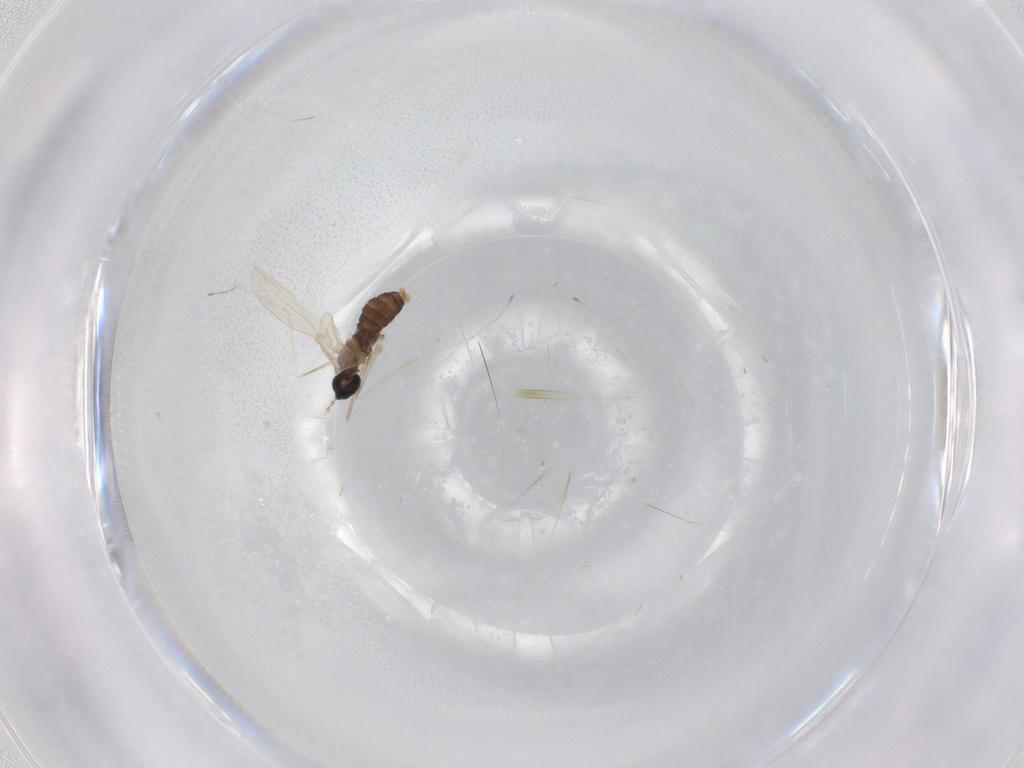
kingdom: Animalia
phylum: Arthropoda
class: Insecta
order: Diptera
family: Cecidomyiidae
